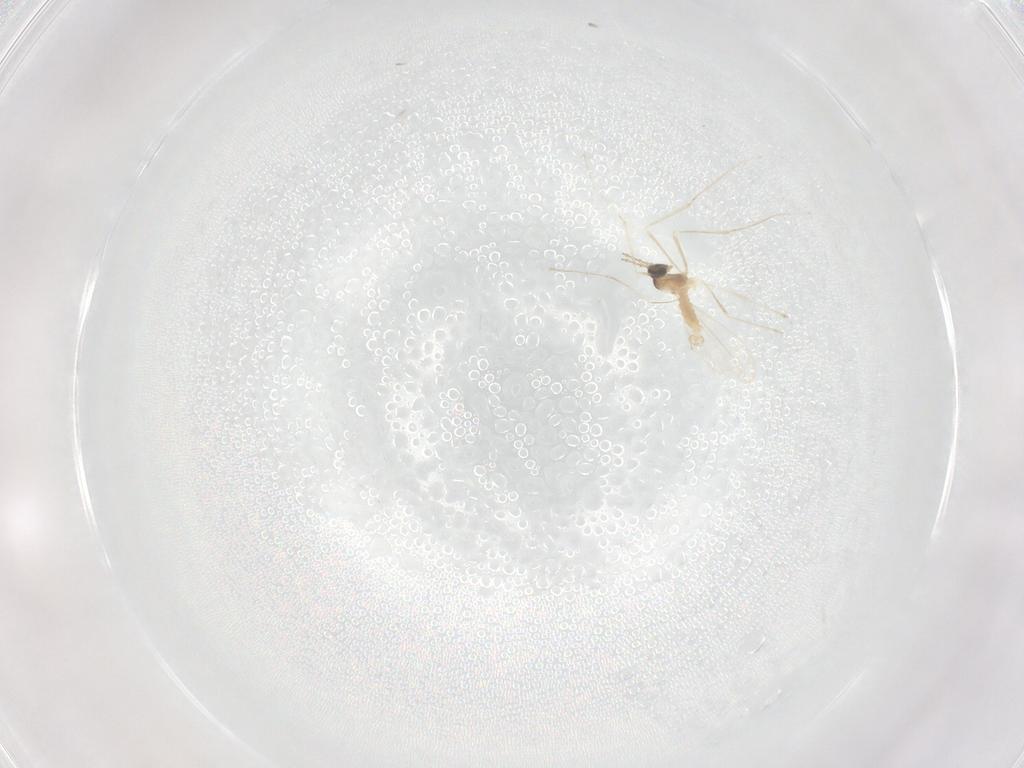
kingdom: Animalia
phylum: Arthropoda
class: Insecta
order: Diptera
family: Cecidomyiidae
